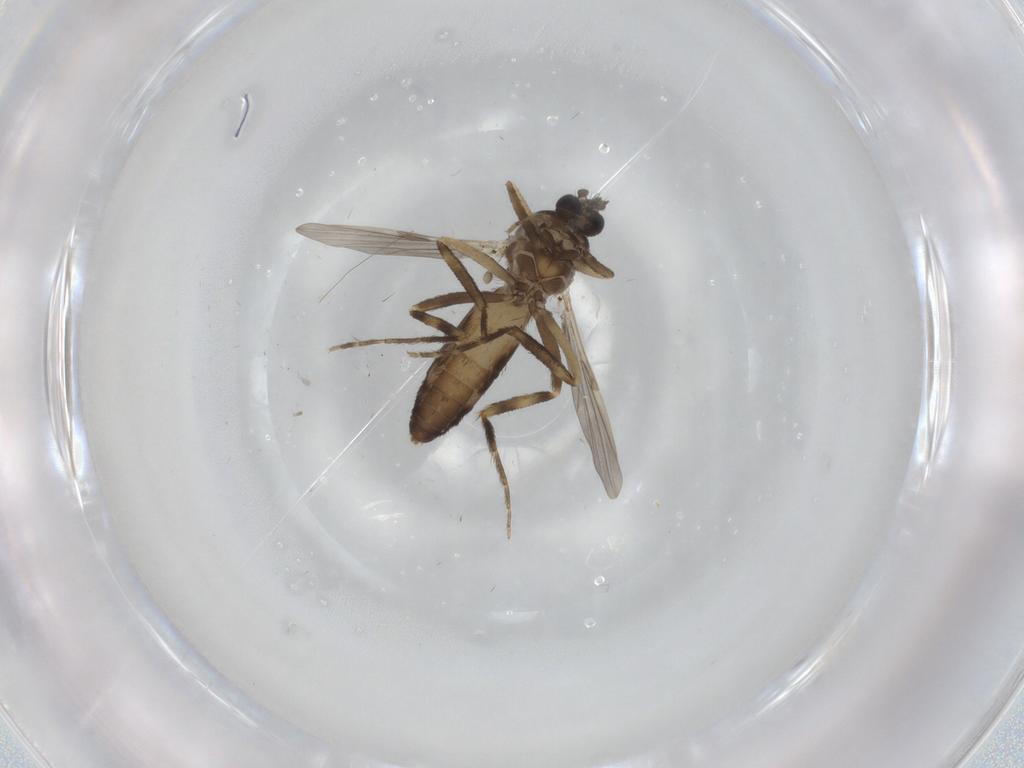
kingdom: Animalia
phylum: Arthropoda
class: Insecta
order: Diptera
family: Ceratopogonidae
